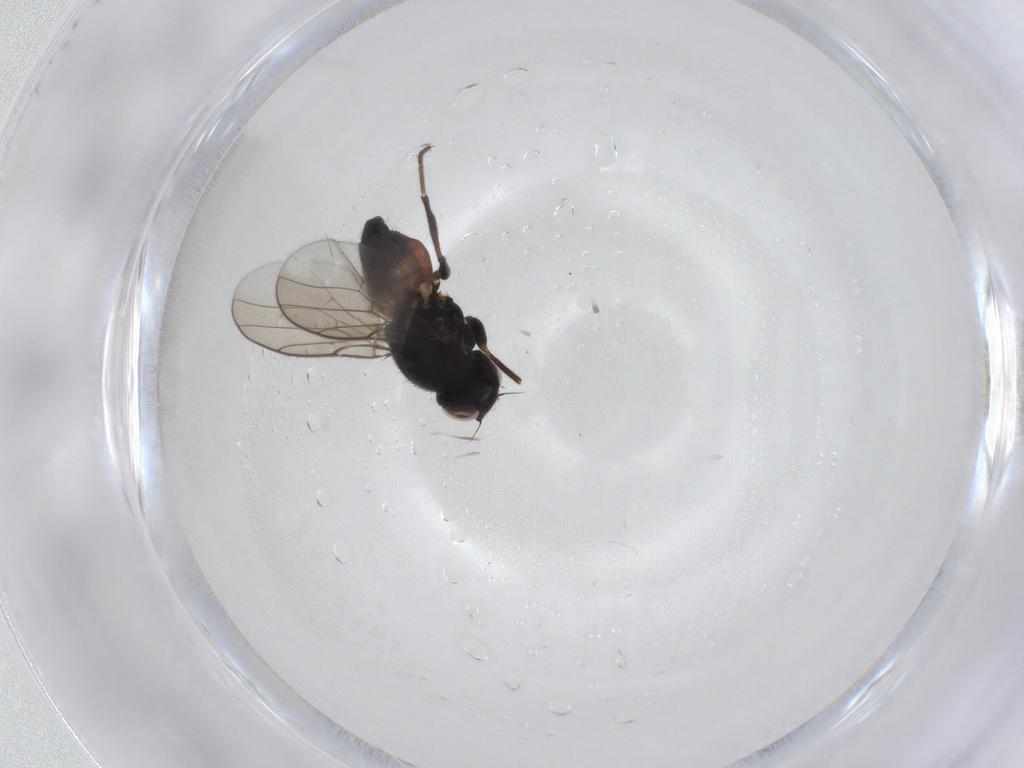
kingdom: Animalia
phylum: Arthropoda
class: Insecta
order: Diptera
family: Chloropidae
